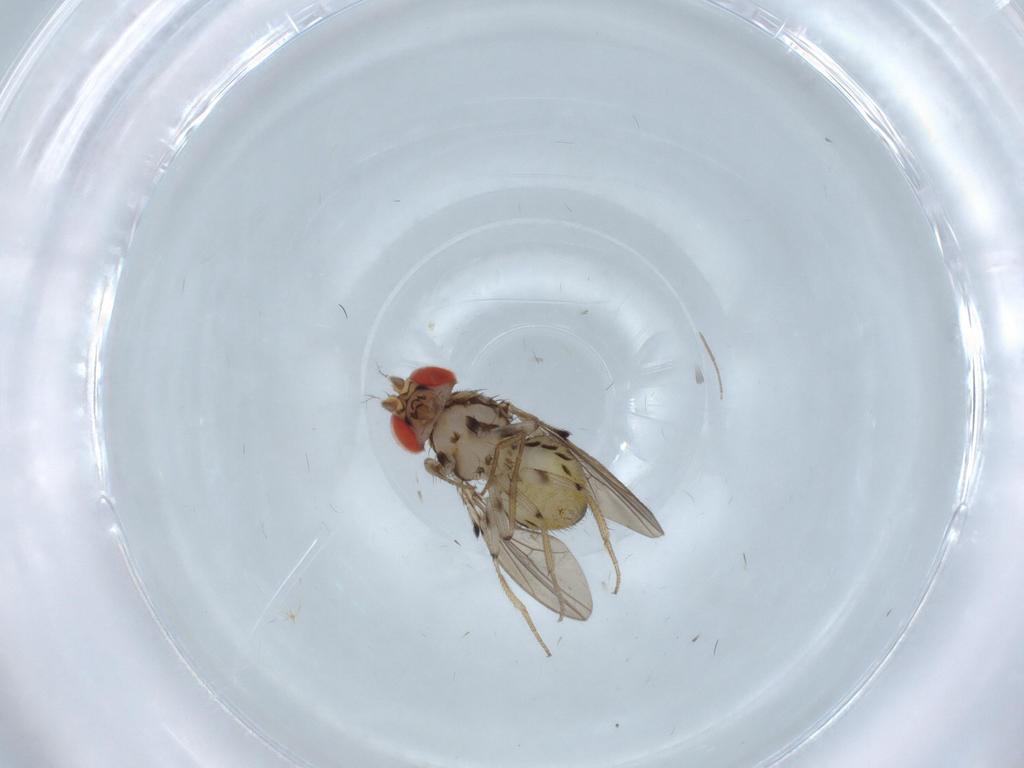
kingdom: Animalia
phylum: Arthropoda
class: Insecta
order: Diptera
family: Drosophilidae
